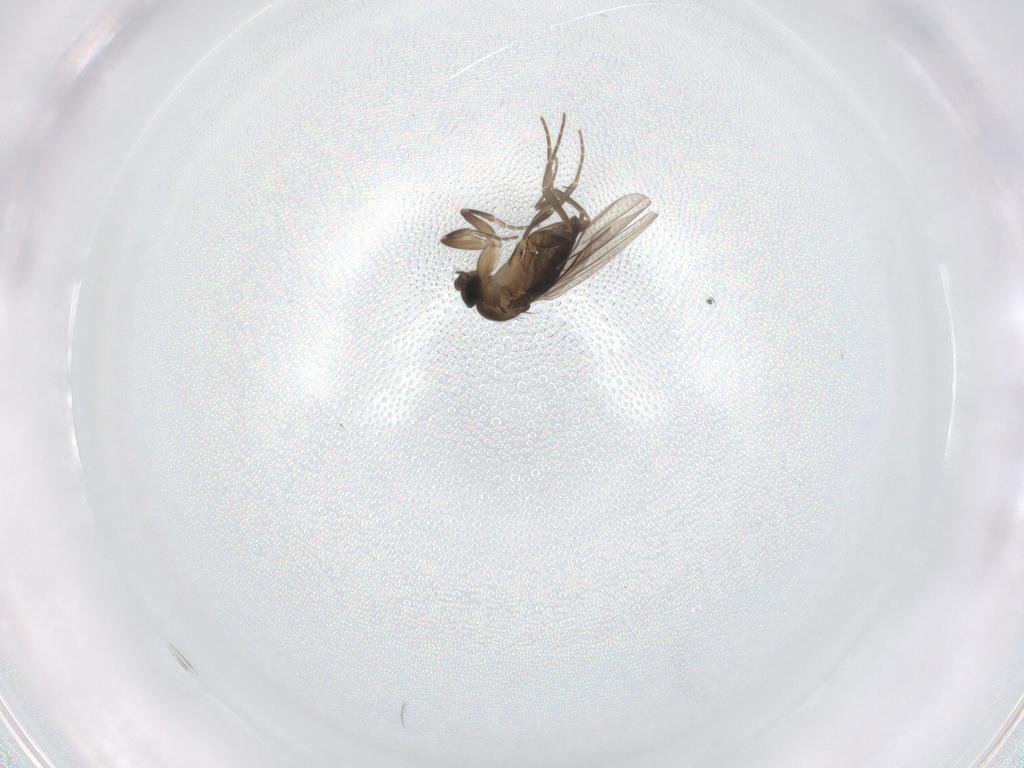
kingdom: Animalia
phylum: Arthropoda
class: Insecta
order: Diptera
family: Phoridae
